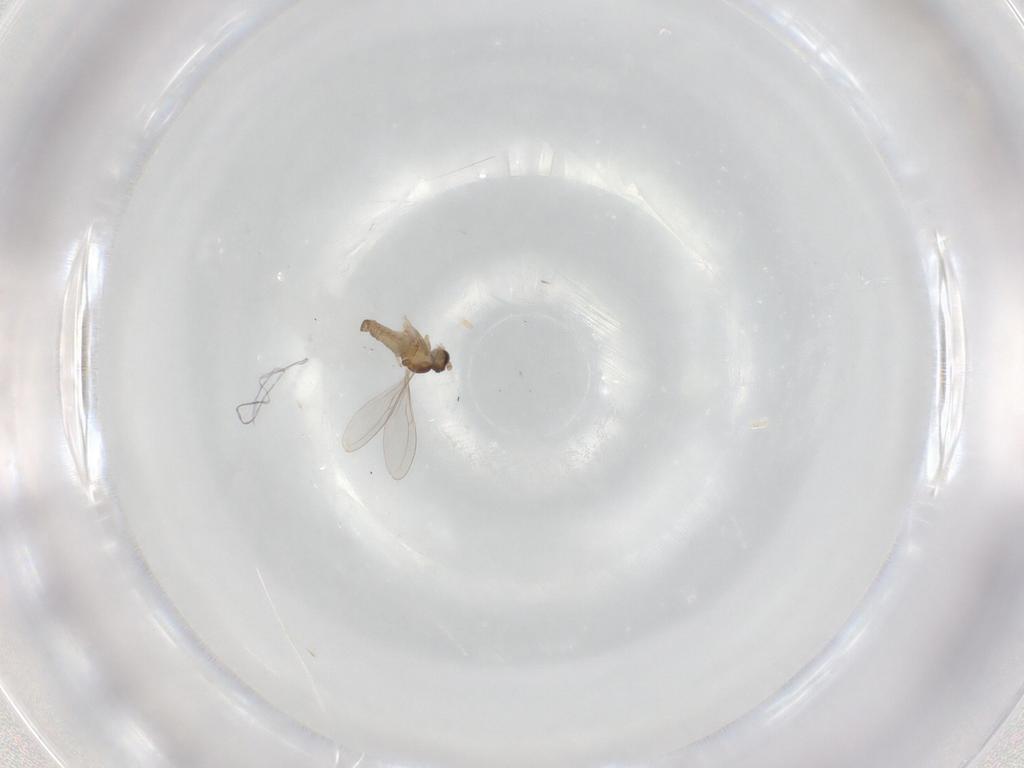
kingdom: Animalia
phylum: Arthropoda
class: Insecta
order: Diptera
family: Cecidomyiidae
